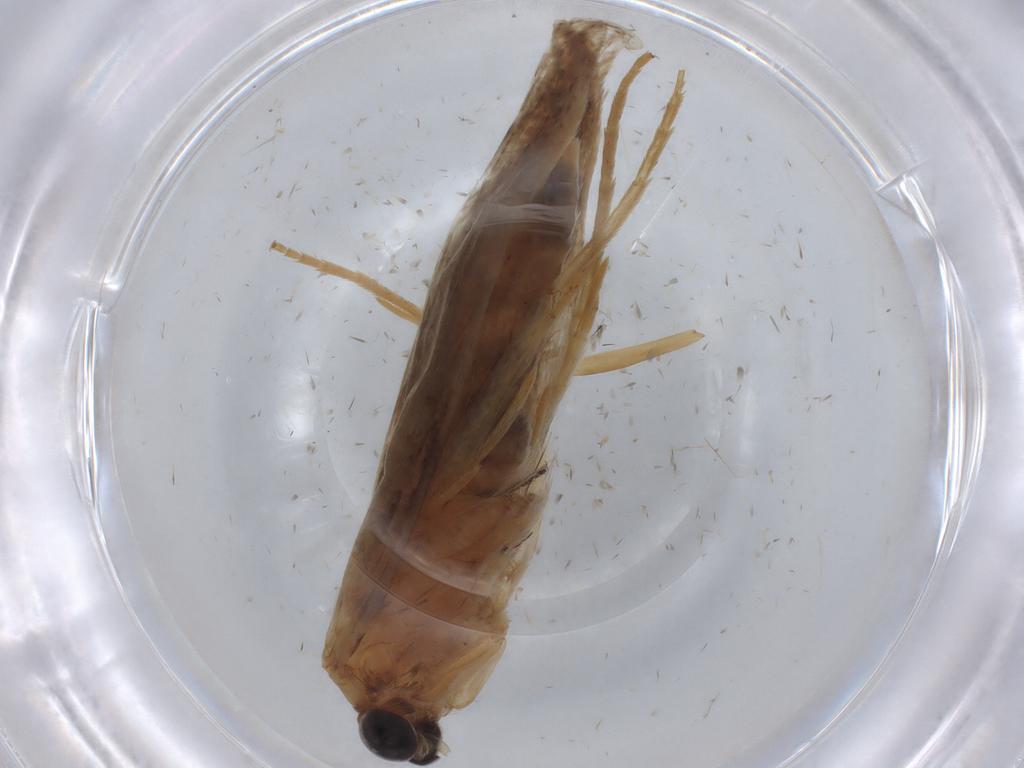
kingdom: Animalia
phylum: Arthropoda
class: Insecta
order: Lepidoptera
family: Tineidae
